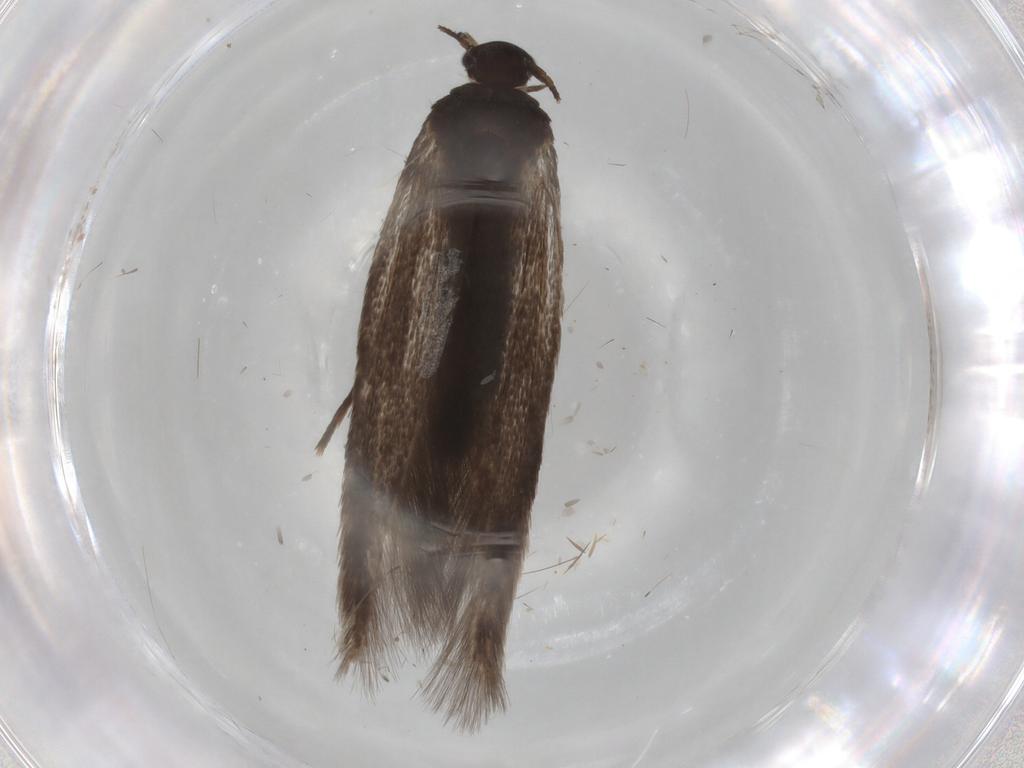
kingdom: Animalia
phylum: Arthropoda
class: Insecta
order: Lepidoptera
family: Nepticulidae
